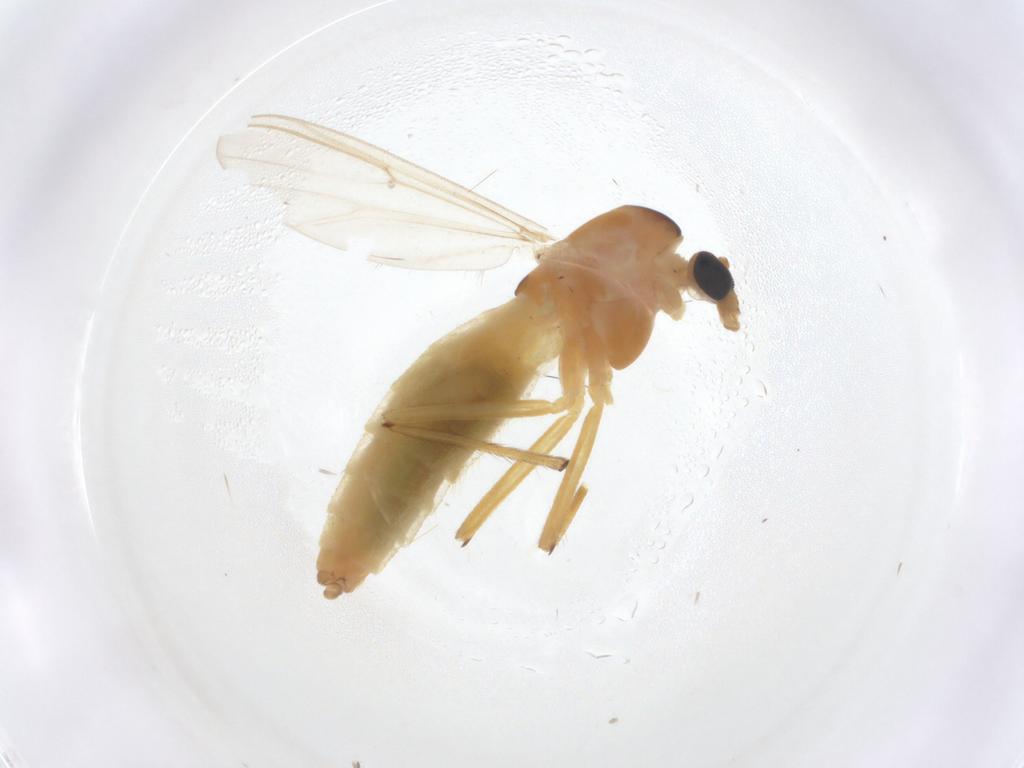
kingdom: Animalia
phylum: Arthropoda
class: Insecta
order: Diptera
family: Chironomidae
